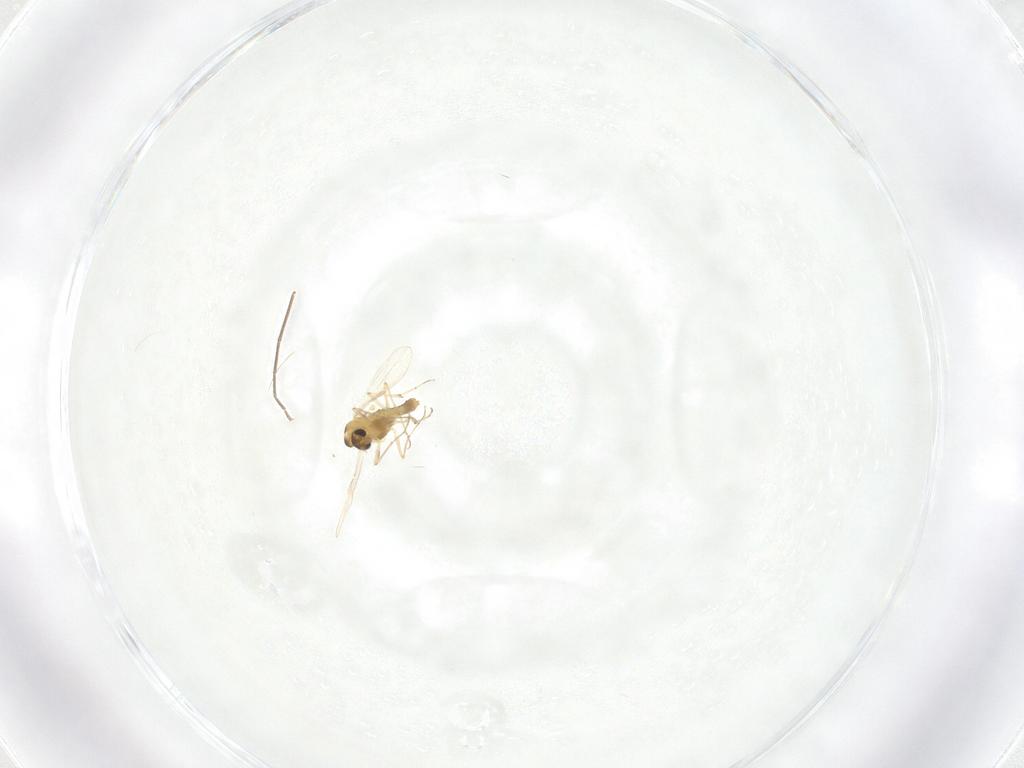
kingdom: Animalia
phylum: Arthropoda
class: Insecta
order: Diptera
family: Chironomidae
